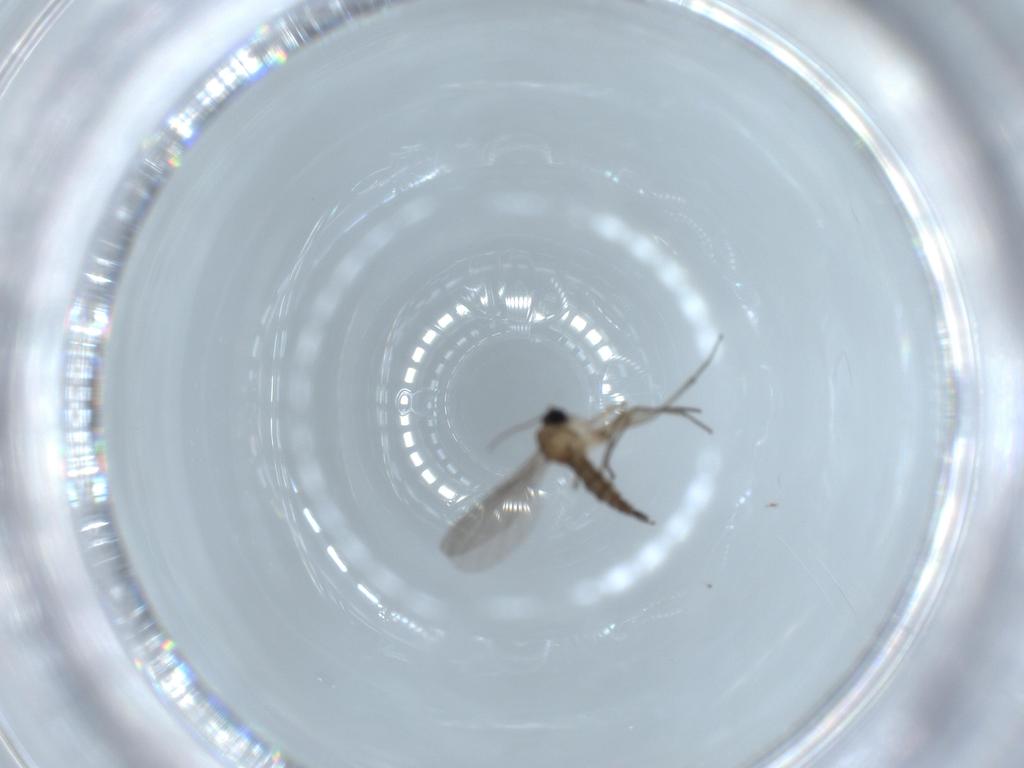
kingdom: Animalia
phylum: Arthropoda
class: Insecta
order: Diptera
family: Sciaridae
